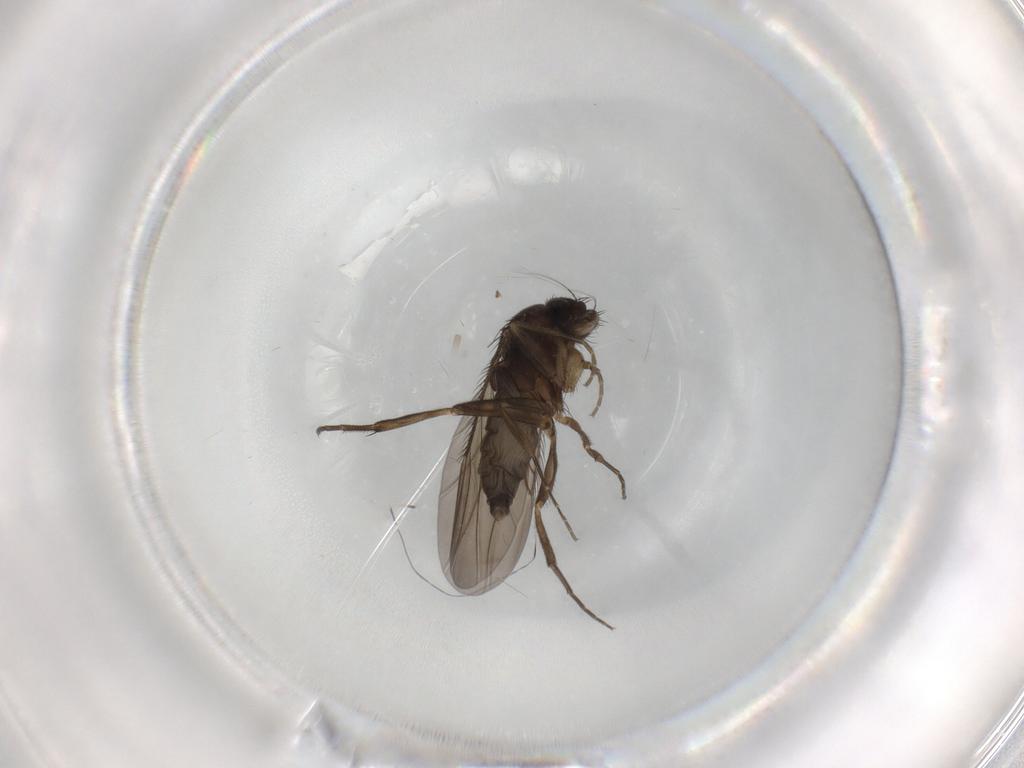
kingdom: Animalia
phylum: Arthropoda
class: Insecta
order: Diptera
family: Phoridae
